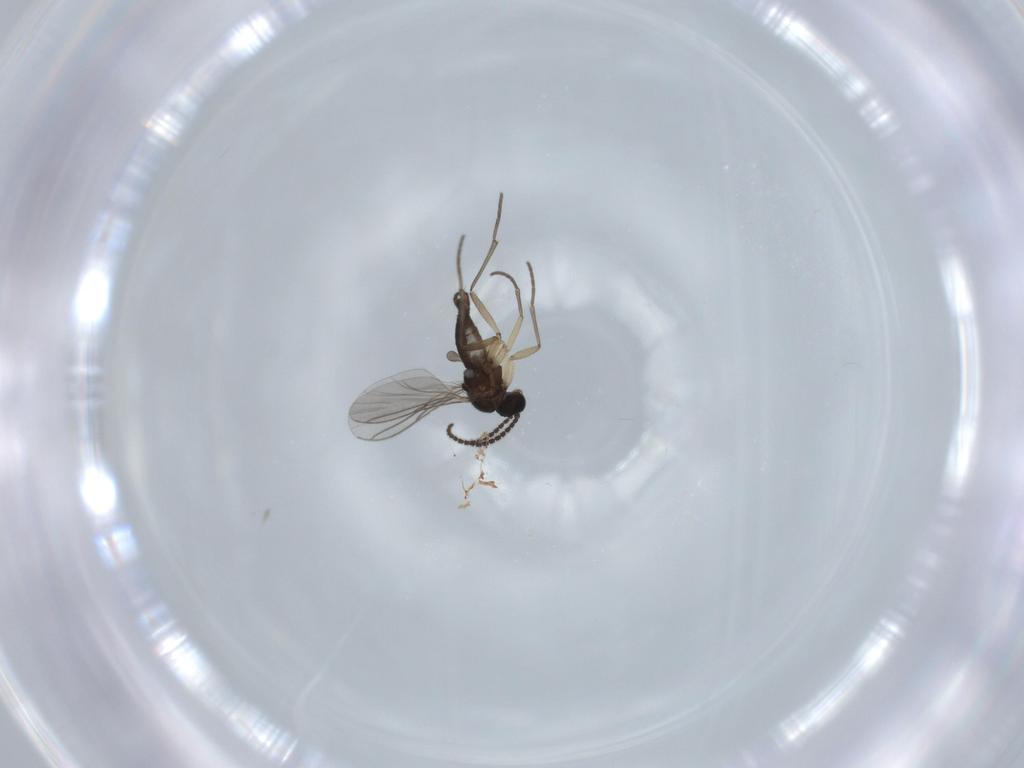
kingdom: Animalia
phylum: Arthropoda
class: Insecta
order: Diptera
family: Sciaridae
